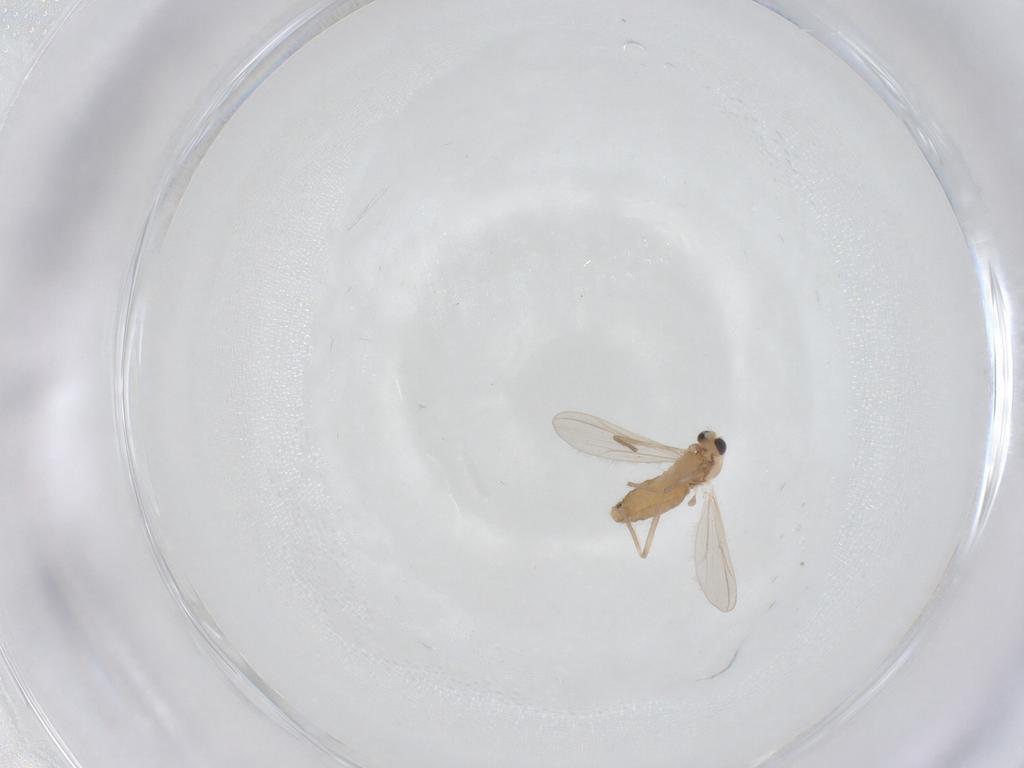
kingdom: Animalia
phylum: Arthropoda
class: Insecta
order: Diptera
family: Chironomidae
